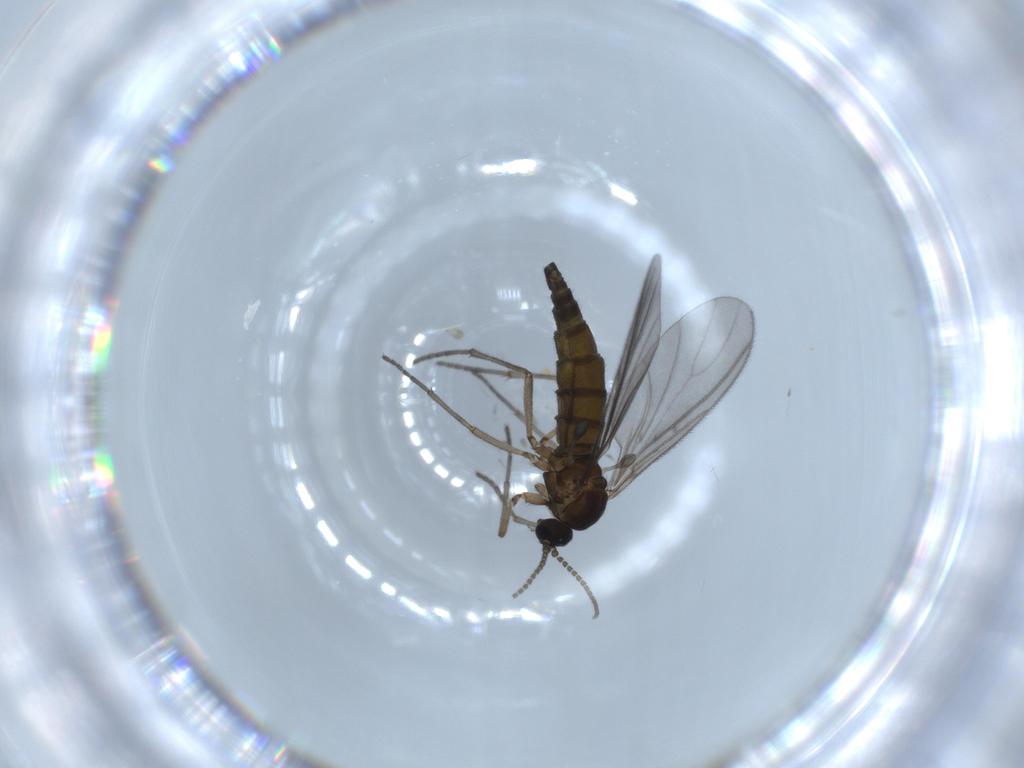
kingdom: Animalia
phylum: Arthropoda
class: Insecta
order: Diptera
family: Sciaridae
